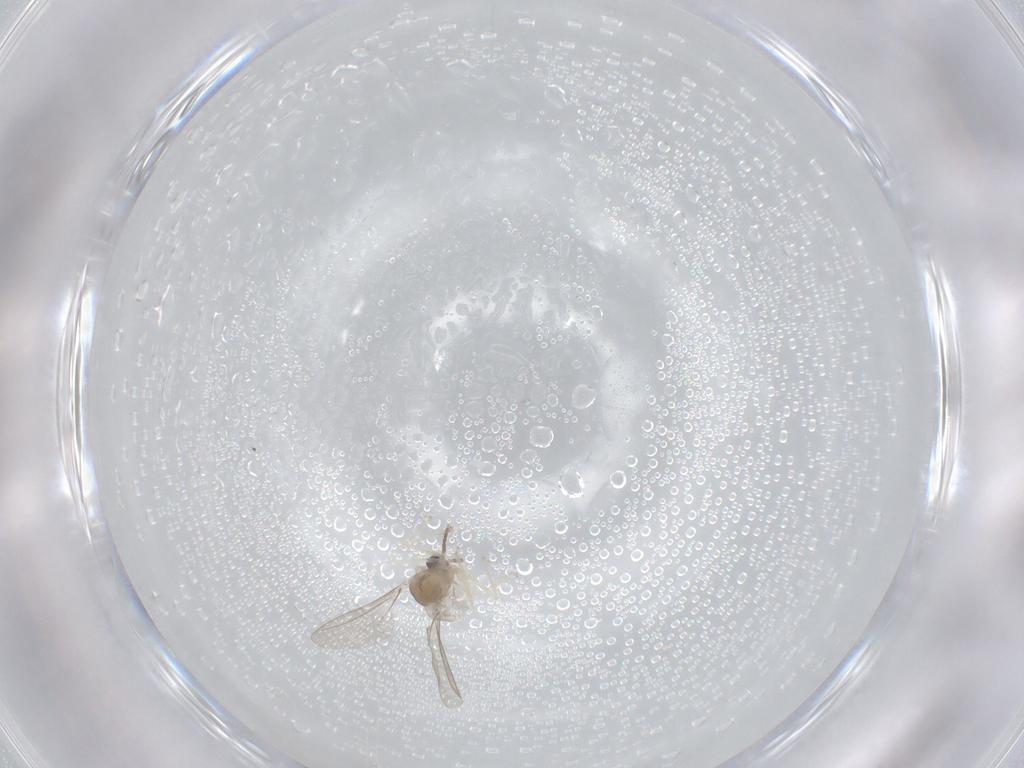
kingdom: Animalia
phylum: Arthropoda
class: Insecta
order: Diptera
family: Cecidomyiidae
